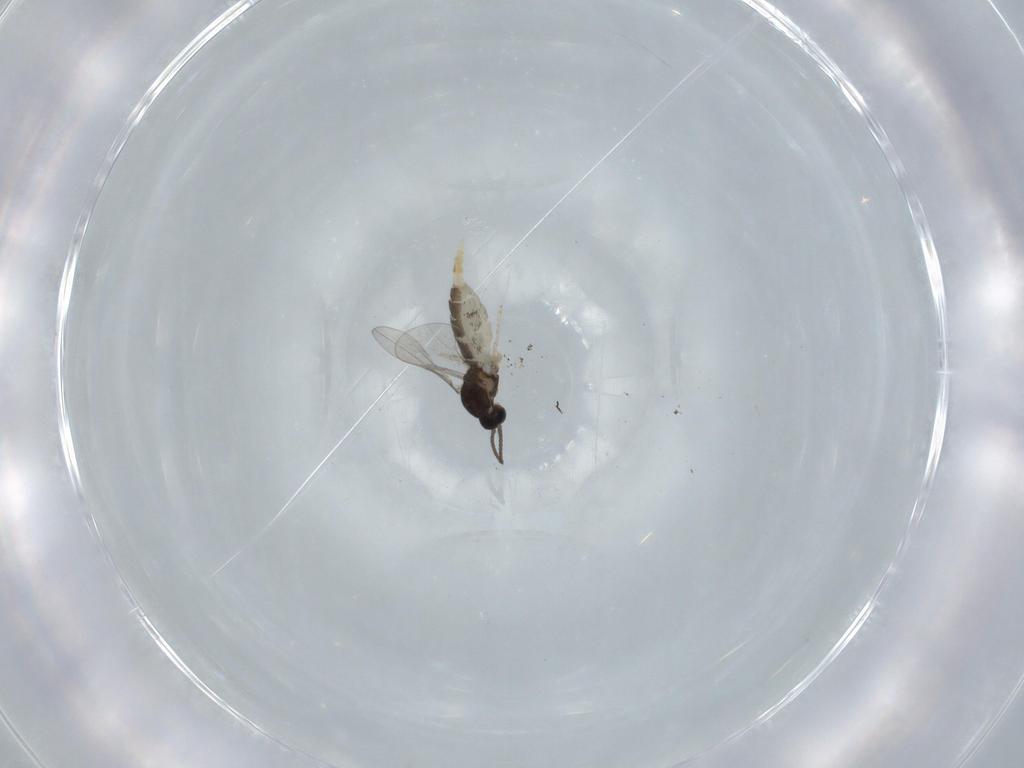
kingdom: Animalia
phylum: Arthropoda
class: Insecta
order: Diptera
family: Cecidomyiidae
